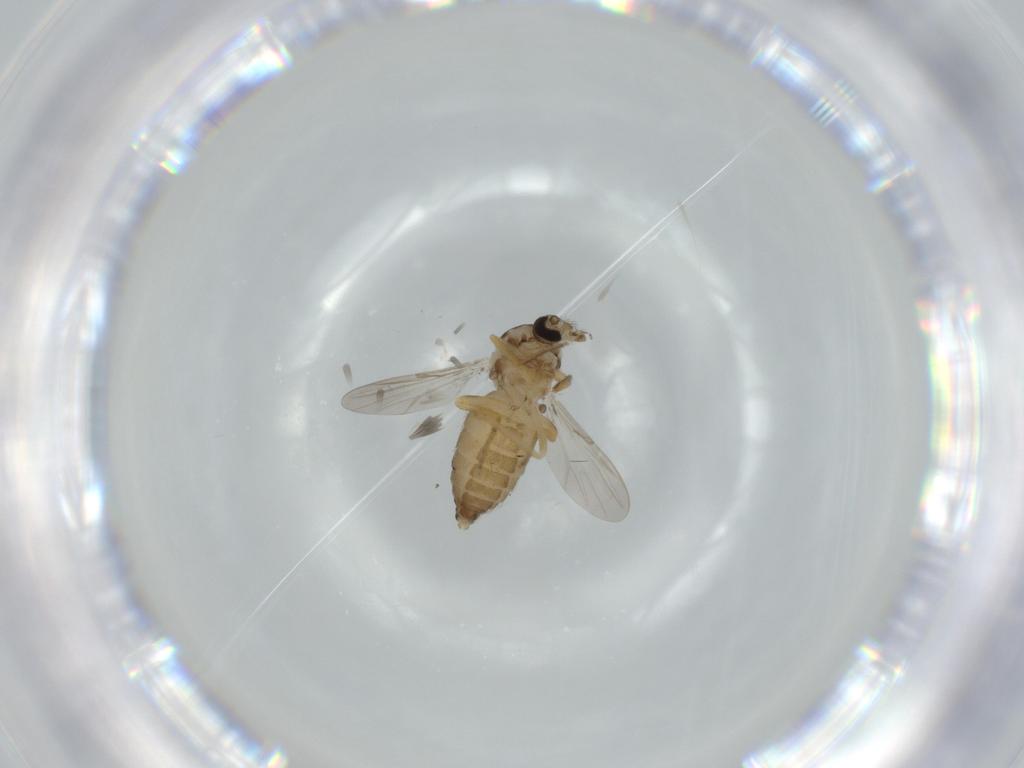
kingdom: Animalia
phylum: Arthropoda
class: Insecta
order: Diptera
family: Ceratopogonidae
